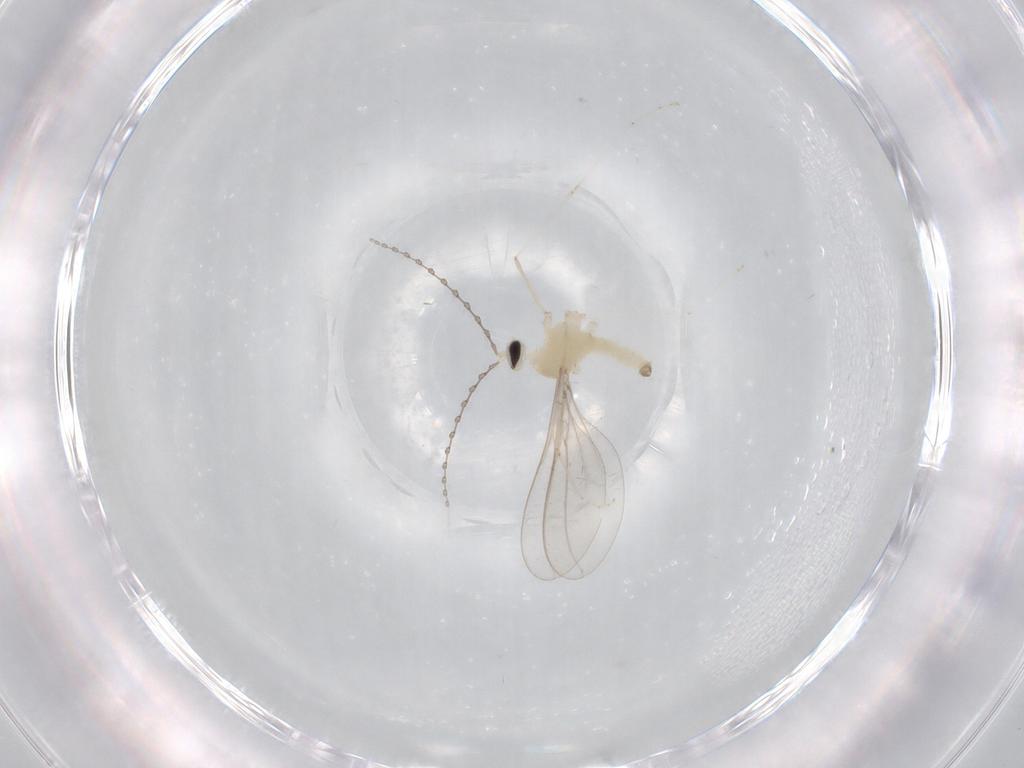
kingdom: Animalia
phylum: Arthropoda
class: Insecta
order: Diptera
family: Cecidomyiidae
